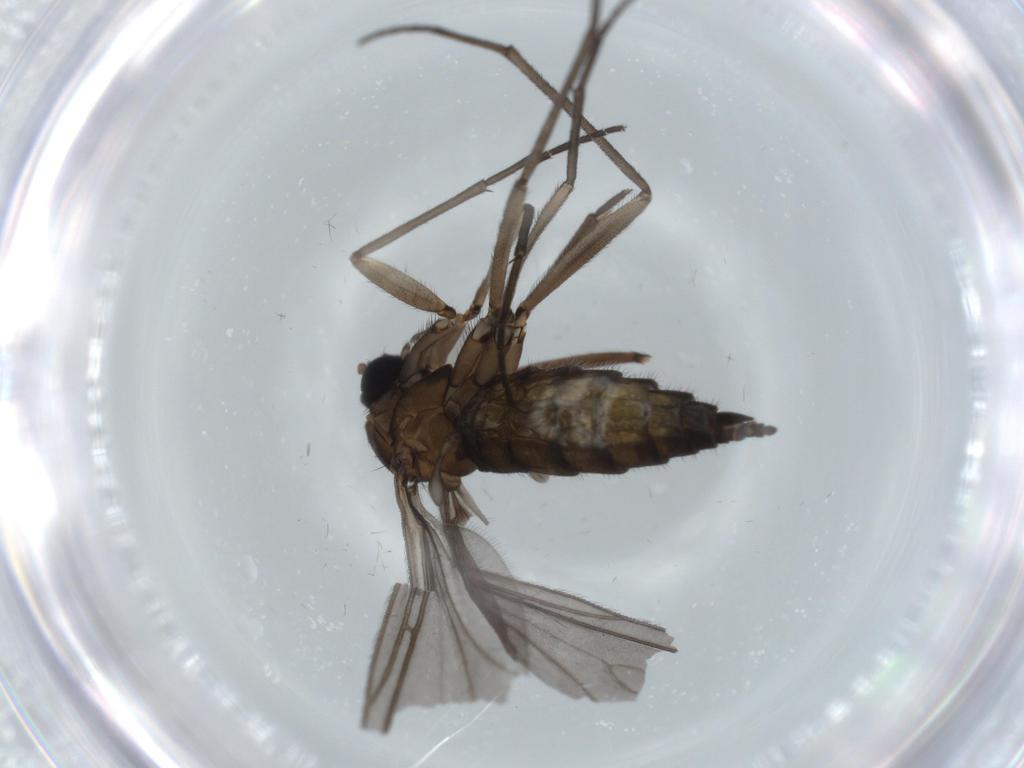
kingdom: Animalia
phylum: Arthropoda
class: Insecta
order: Diptera
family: Sciaridae
